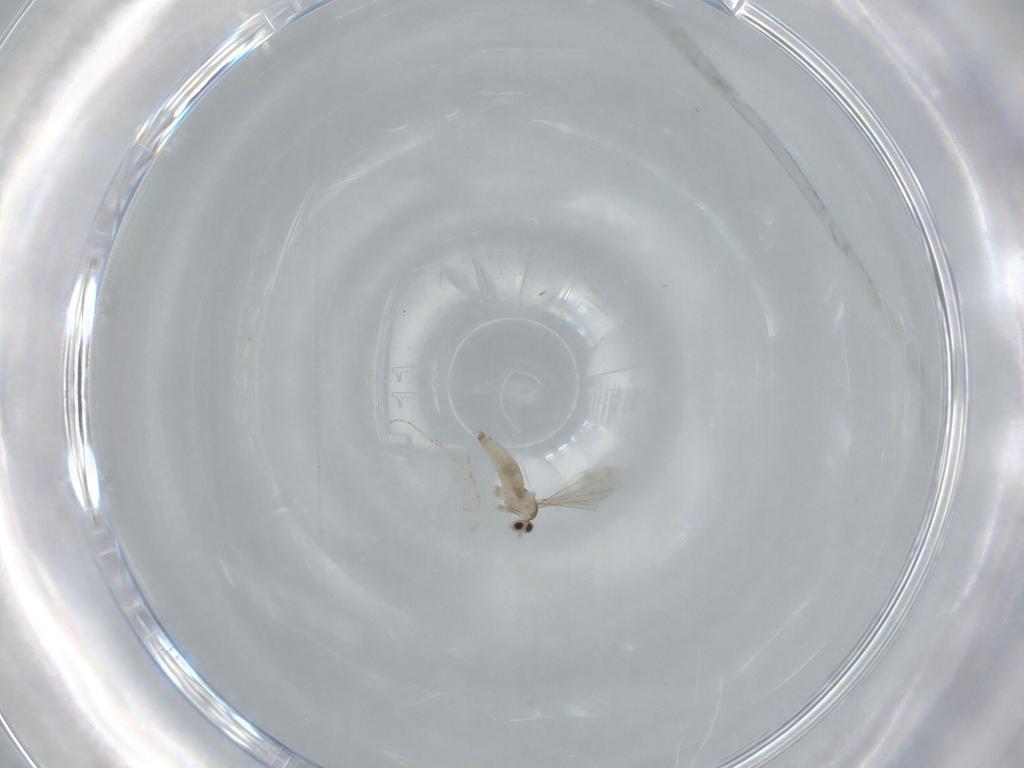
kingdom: Animalia
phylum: Arthropoda
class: Insecta
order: Diptera
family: Cecidomyiidae
